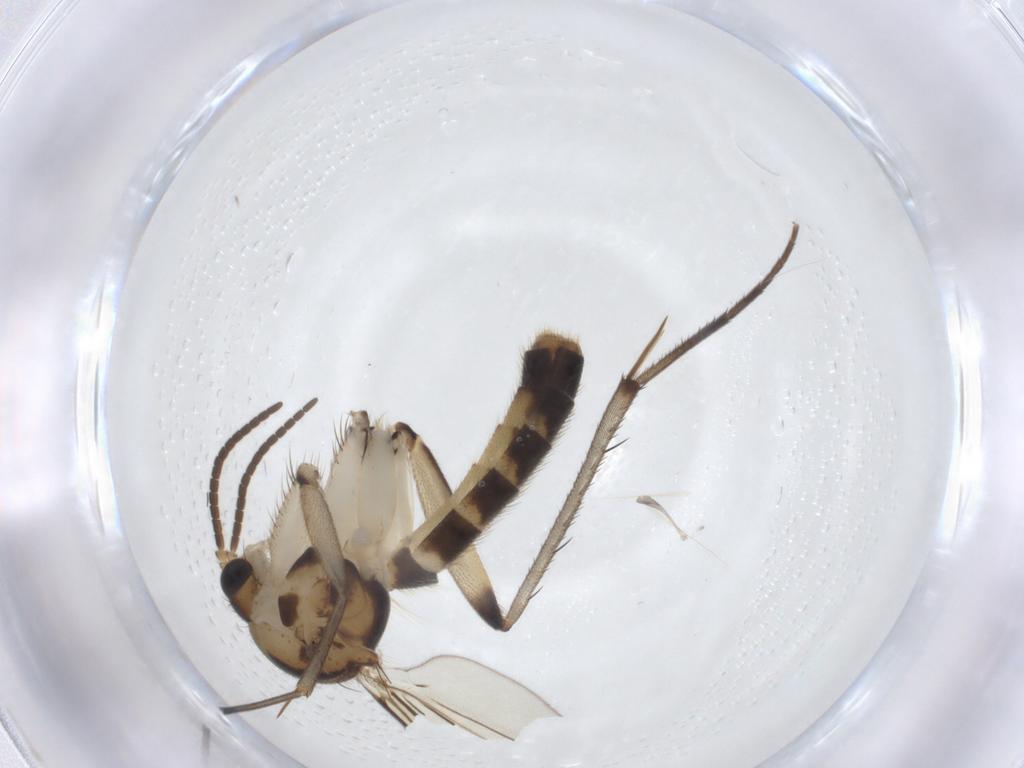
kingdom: Animalia
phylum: Arthropoda
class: Insecta
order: Diptera
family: Mycetophilidae
